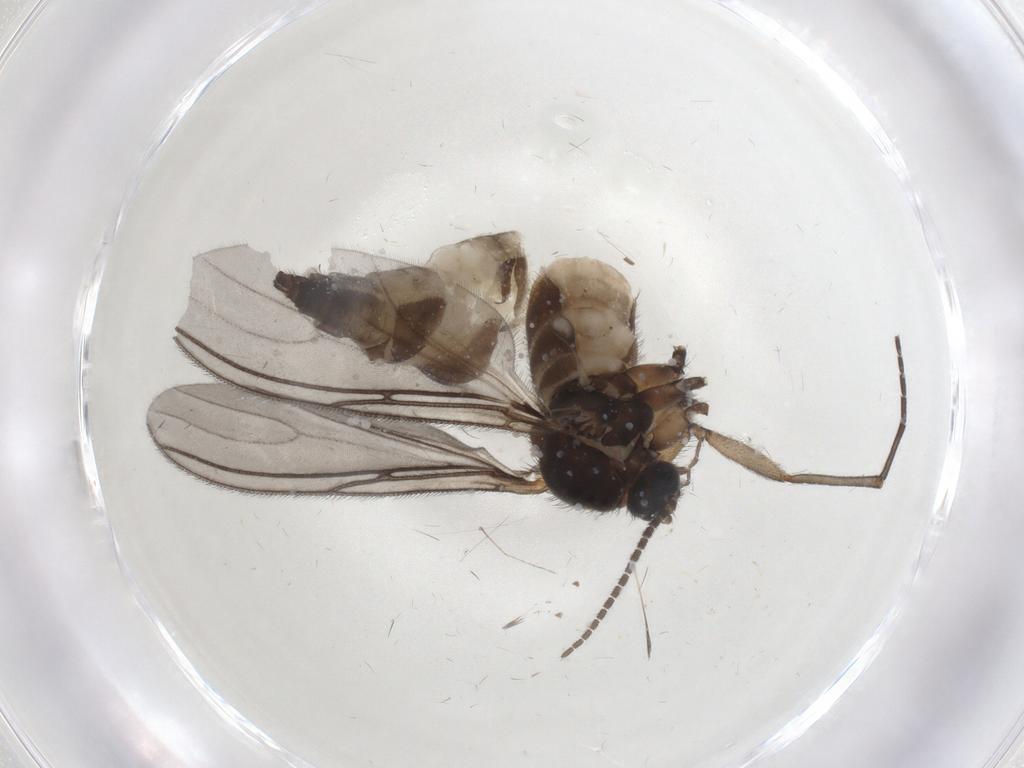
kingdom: Animalia
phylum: Arthropoda
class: Insecta
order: Diptera
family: Sciaridae
